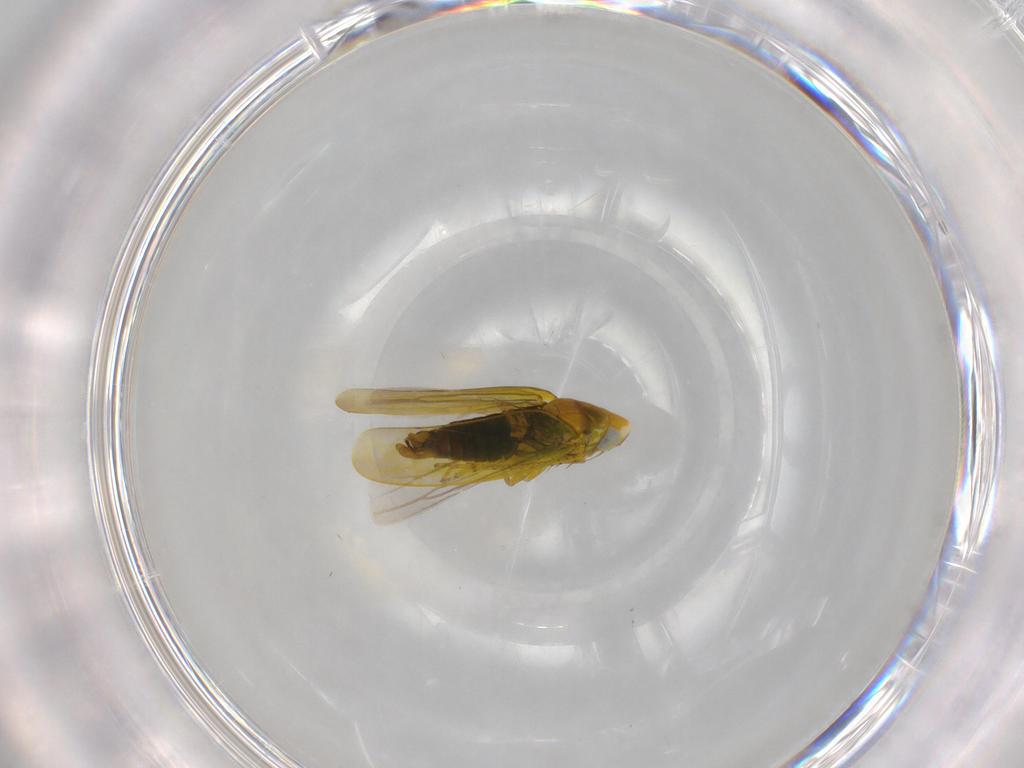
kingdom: Animalia
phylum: Arthropoda
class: Insecta
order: Hemiptera
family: Cicadellidae
